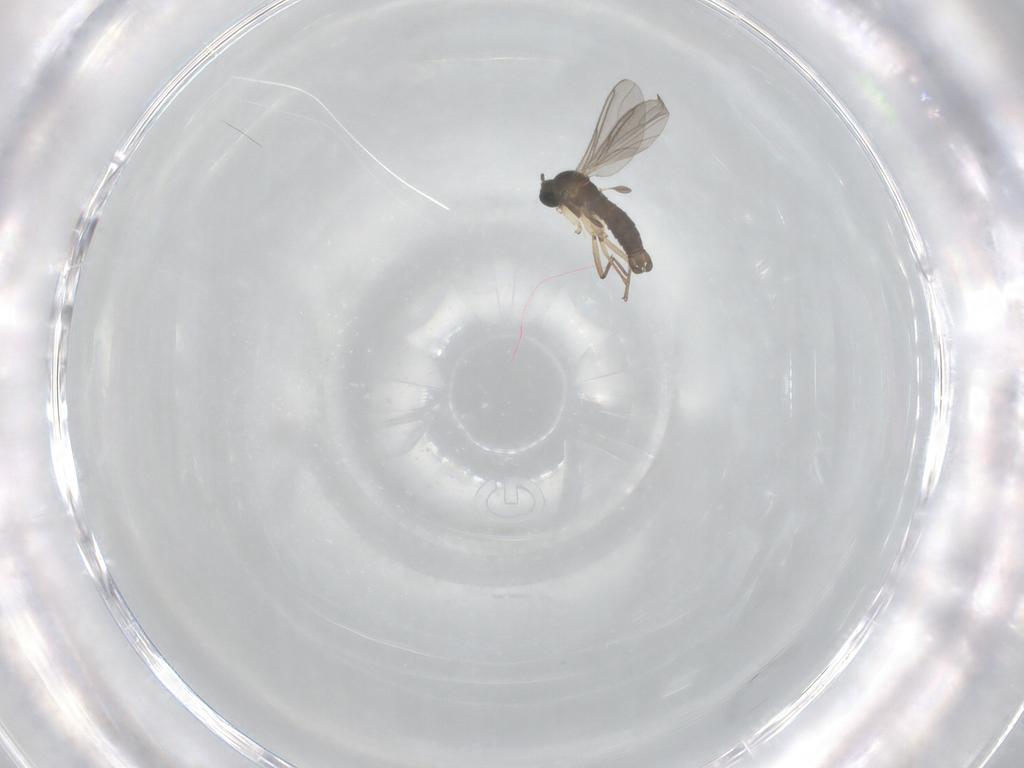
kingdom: Animalia
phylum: Arthropoda
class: Insecta
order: Diptera
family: Sciaridae
